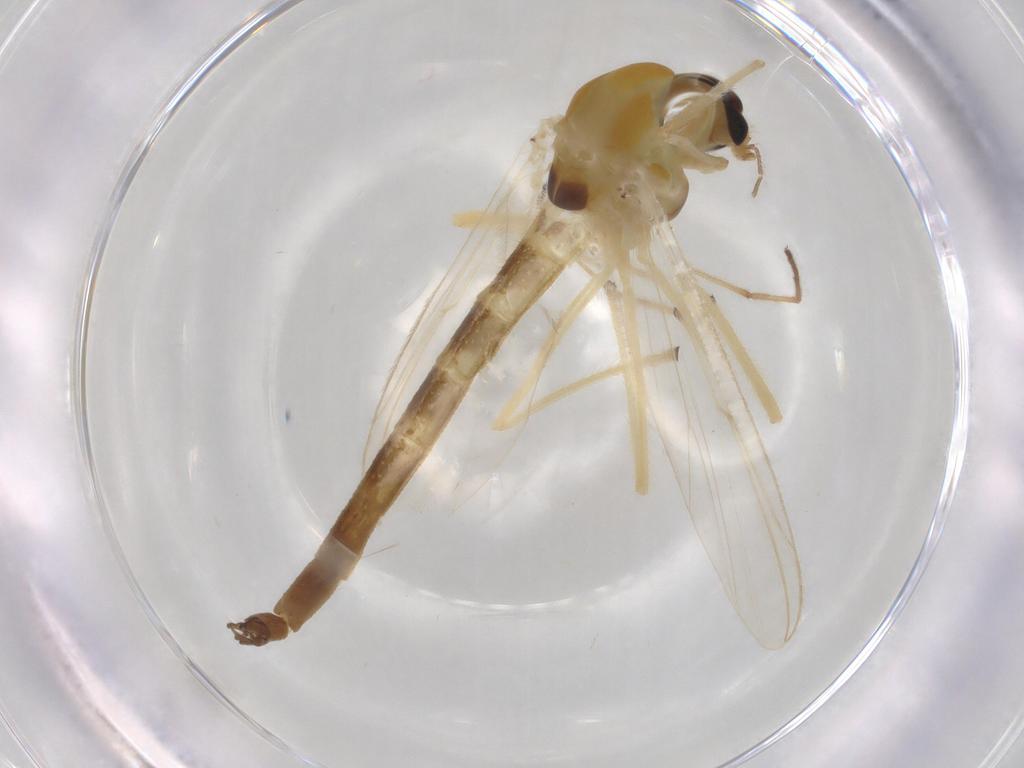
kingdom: Animalia
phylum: Arthropoda
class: Insecta
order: Diptera
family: Chironomidae
